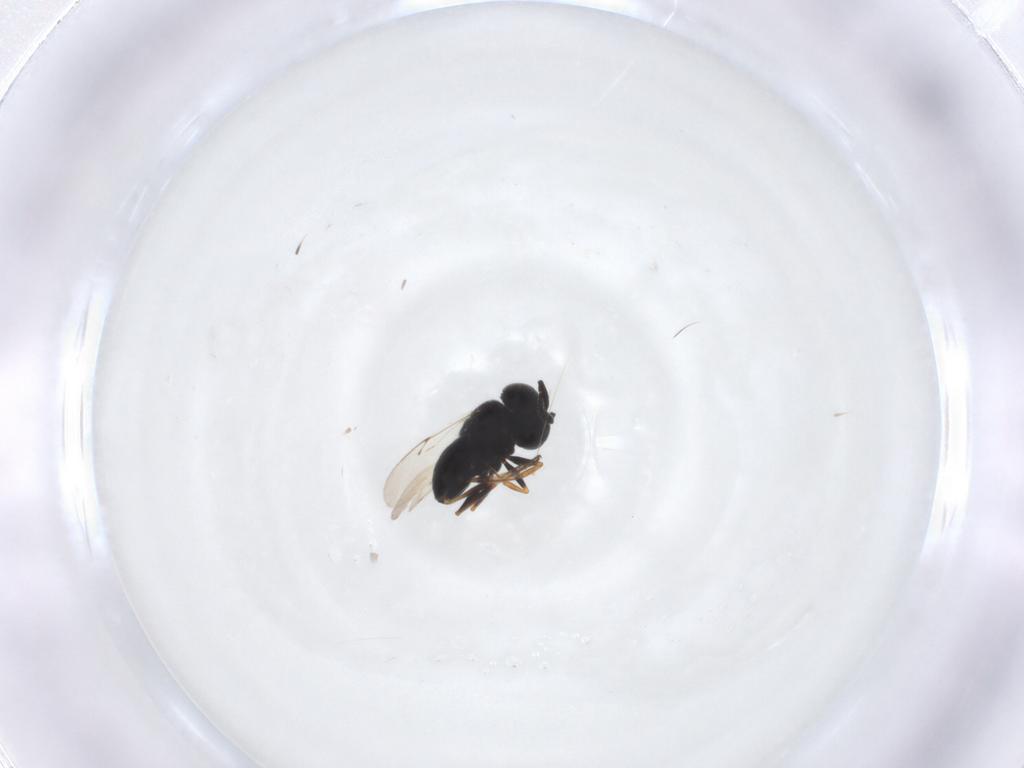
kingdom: Animalia
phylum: Arthropoda
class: Insecta
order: Hymenoptera
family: Scelionidae
